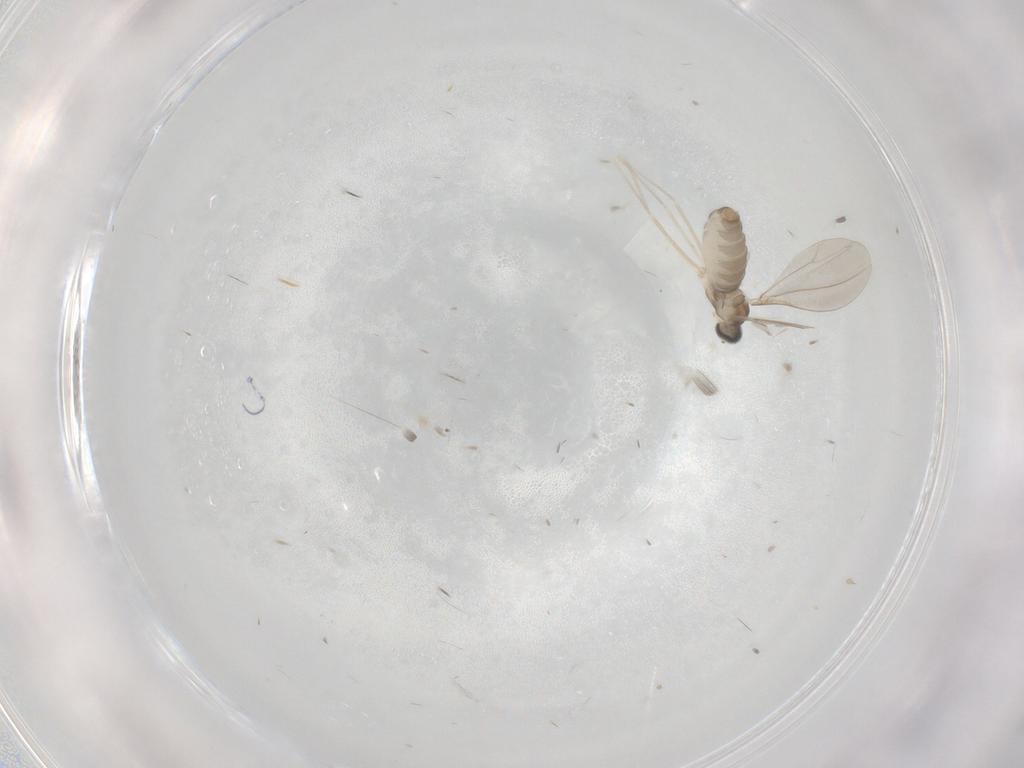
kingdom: Animalia
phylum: Arthropoda
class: Insecta
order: Diptera
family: Cecidomyiidae
